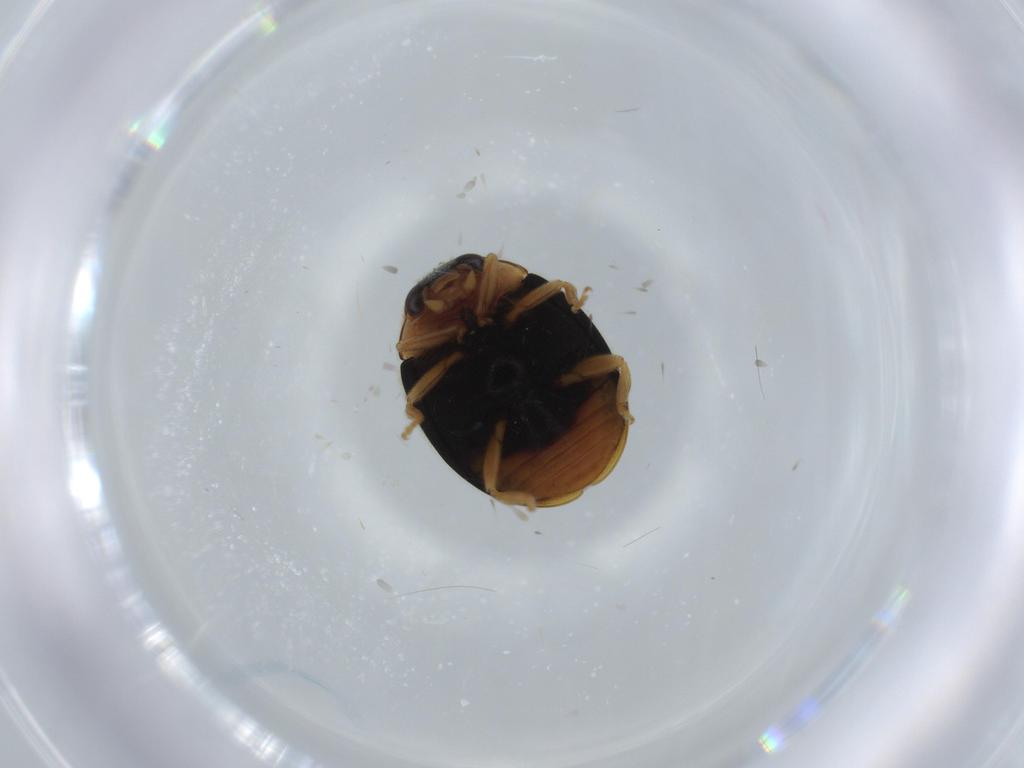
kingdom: Animalia
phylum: Arthropoda
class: Insecta
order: Coleoptera
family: Coccinellidae
